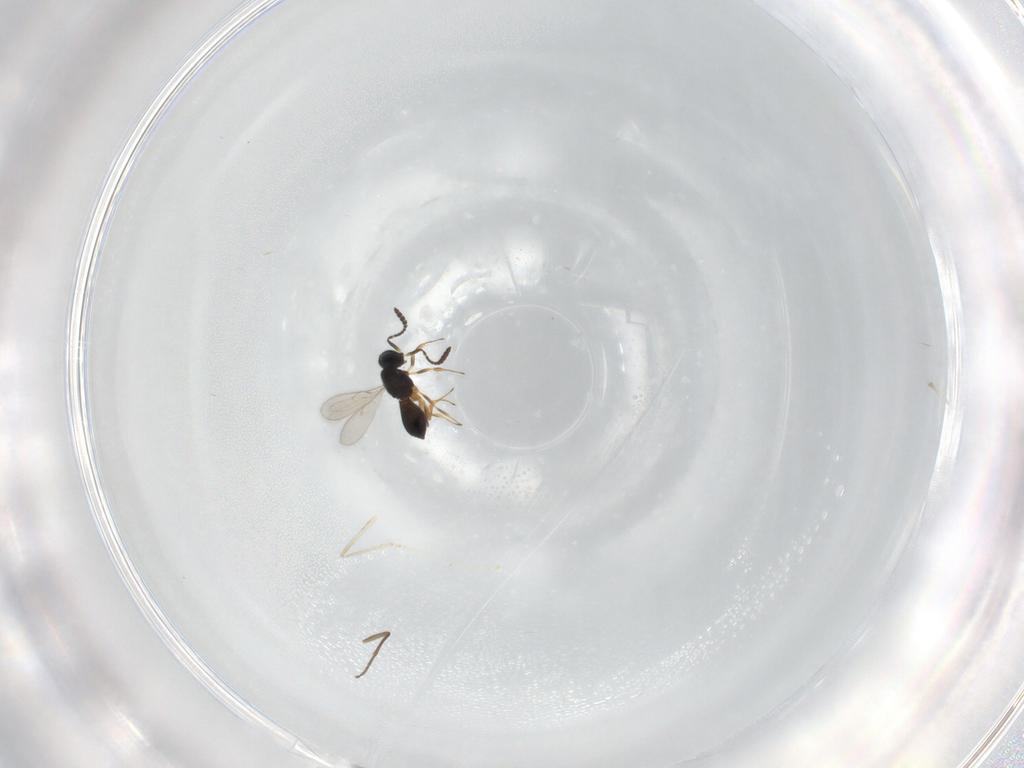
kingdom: Animalia
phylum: Arthropoda
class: Insecta
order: Hymenoptera
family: Scelionidae
